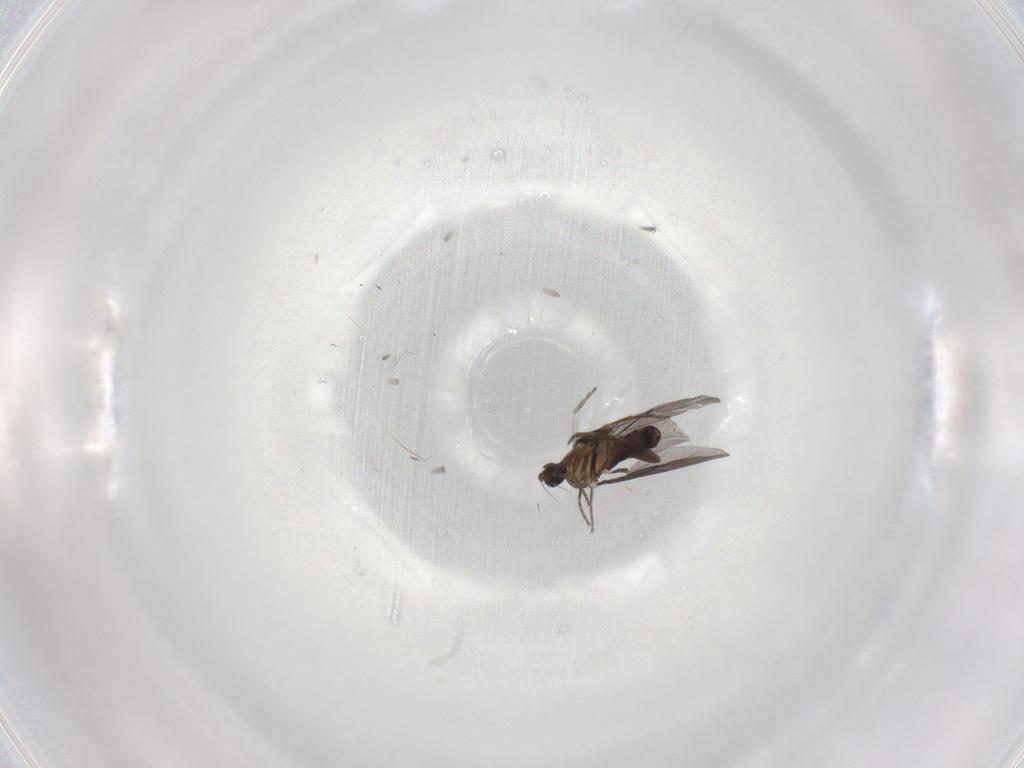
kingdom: Animalia
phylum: Arthropoda
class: Insecta
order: Diptera
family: Phoridae
